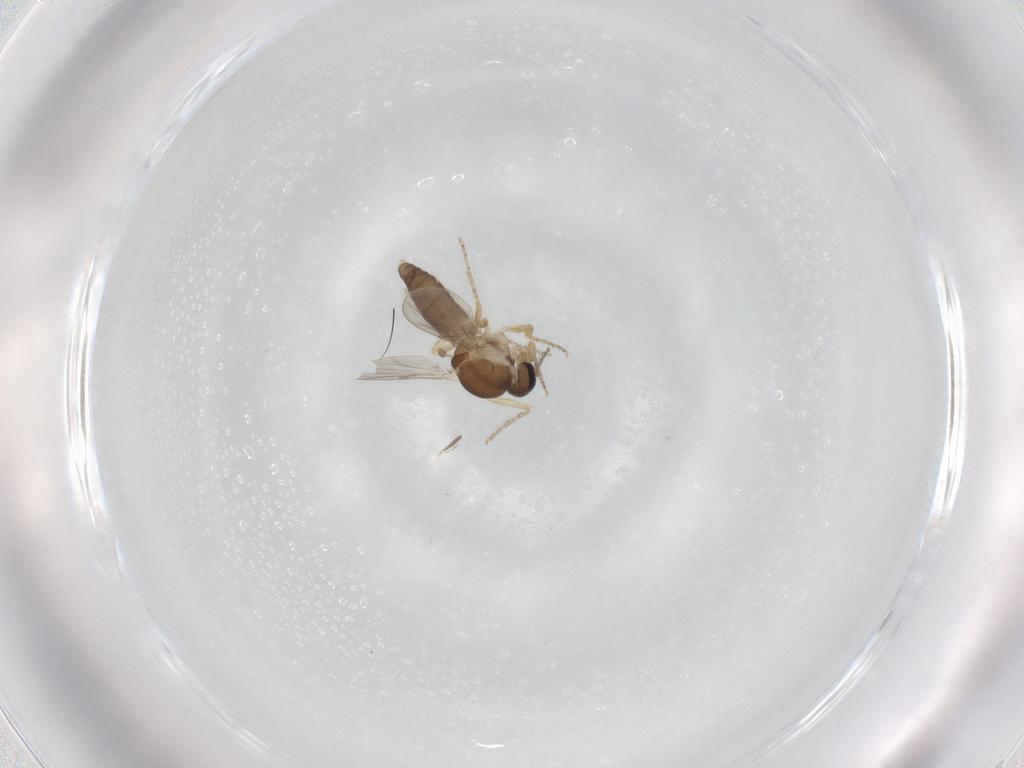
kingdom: Animalia
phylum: Arthropoda
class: Insecta
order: Diptera
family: Ceratopogonidae
